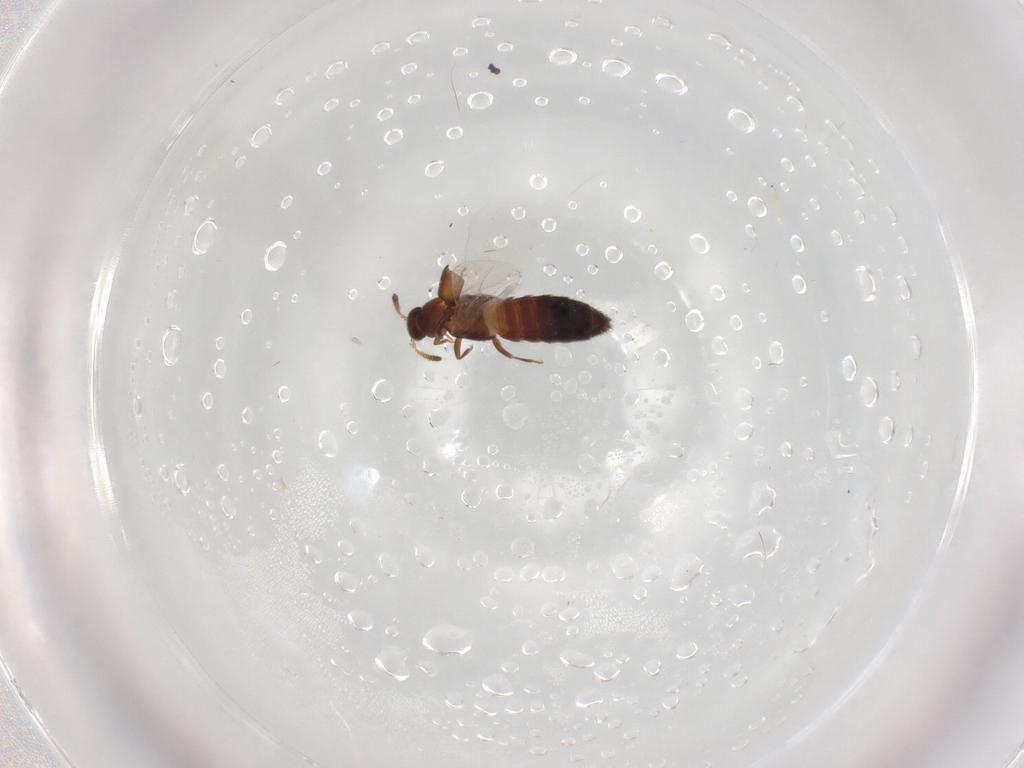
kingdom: Animalia
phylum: Arthropoda
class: Insecta
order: Coleoptera
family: Staphylinidae
